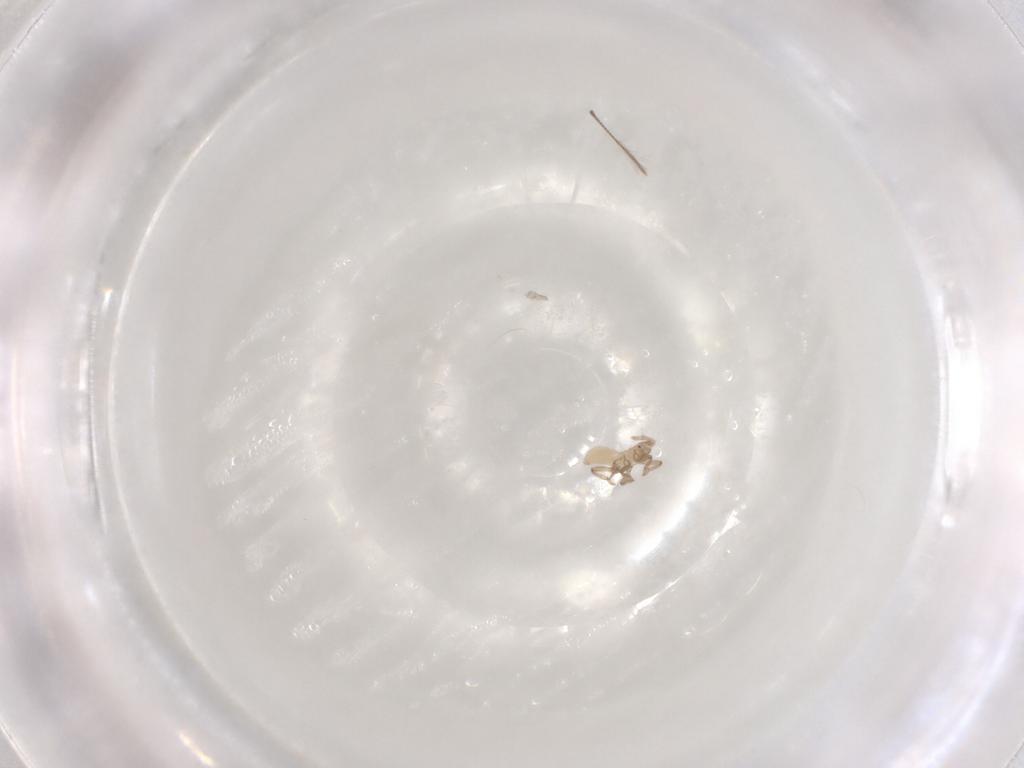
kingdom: Animalia
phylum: Arthropoda
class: Insecta
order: Hemiptera
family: Aphididae
